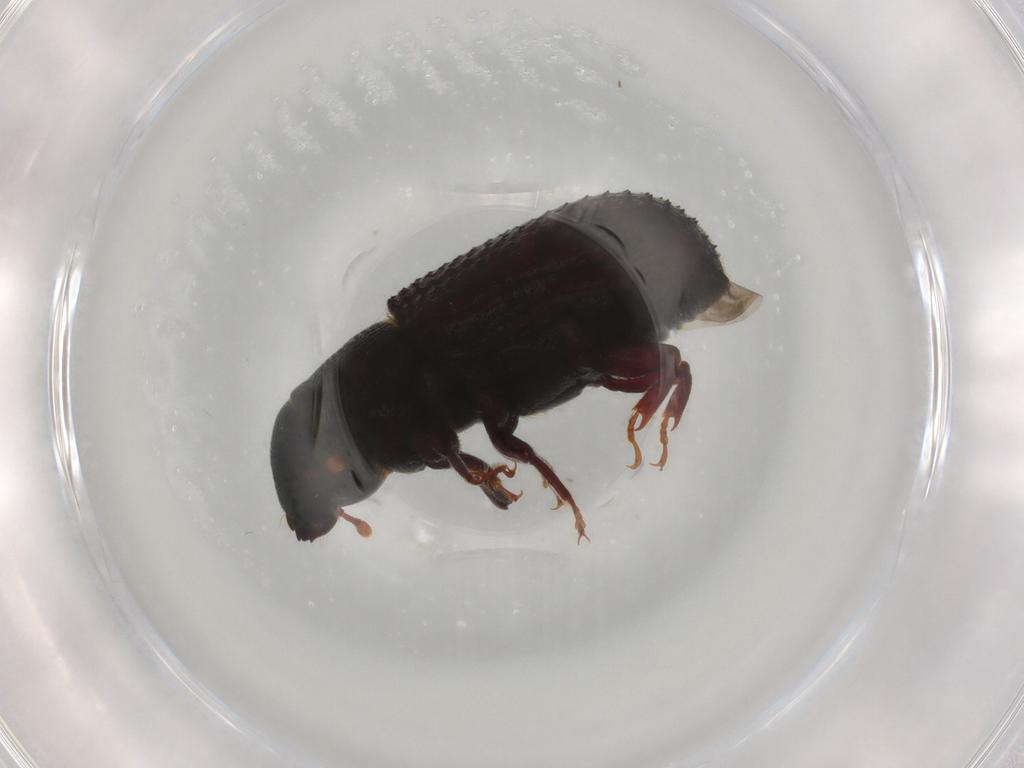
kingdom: Animalia
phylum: Arthropoda
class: Insecta
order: Coleoptera
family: Curculionidae
